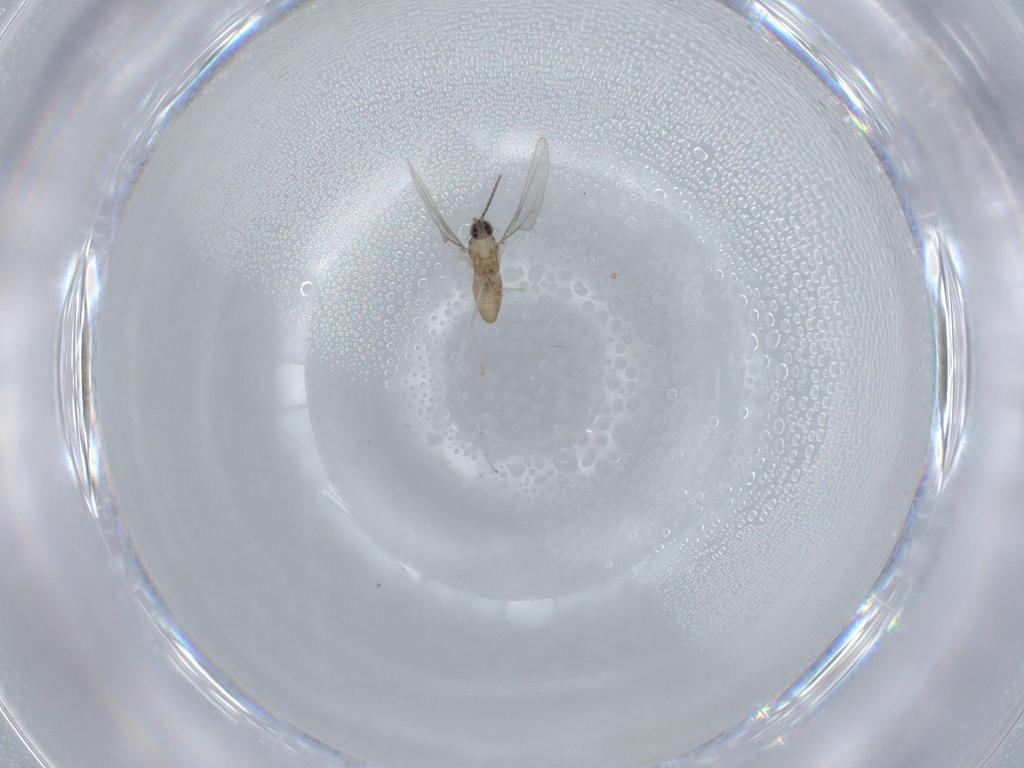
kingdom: Animalia
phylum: Arthropoda
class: Insecta
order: Diptera
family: Cecidomyiidae
